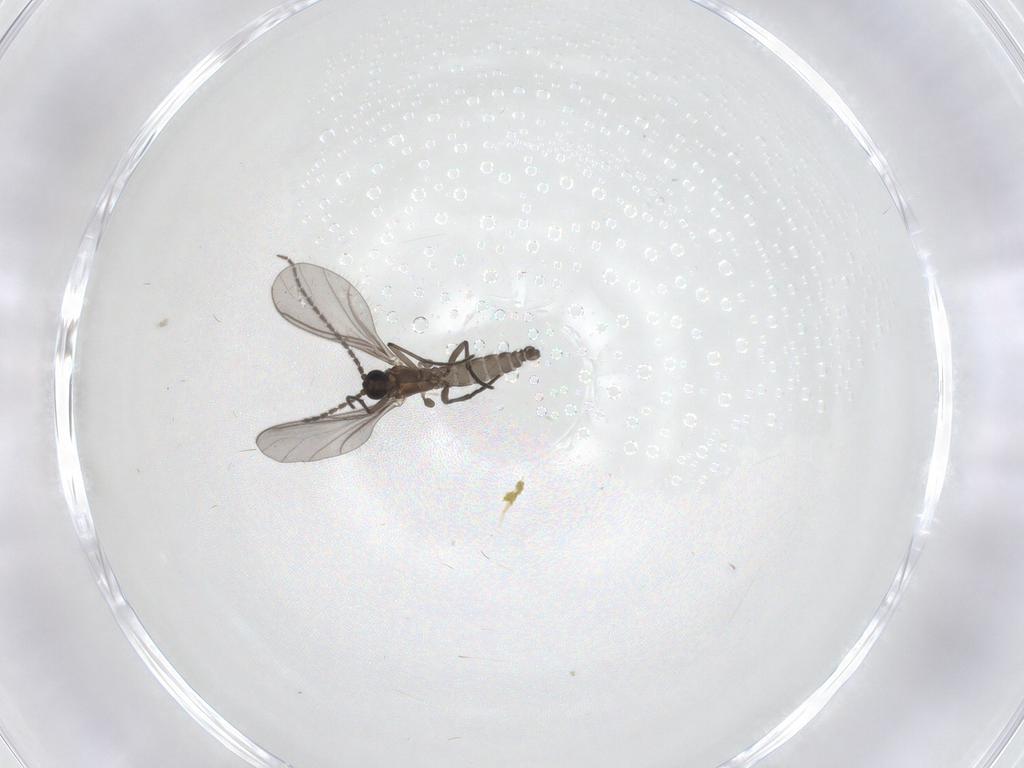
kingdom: Animalia
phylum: Arthropoda
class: Insecta
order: Diptera
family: Sciaridae
